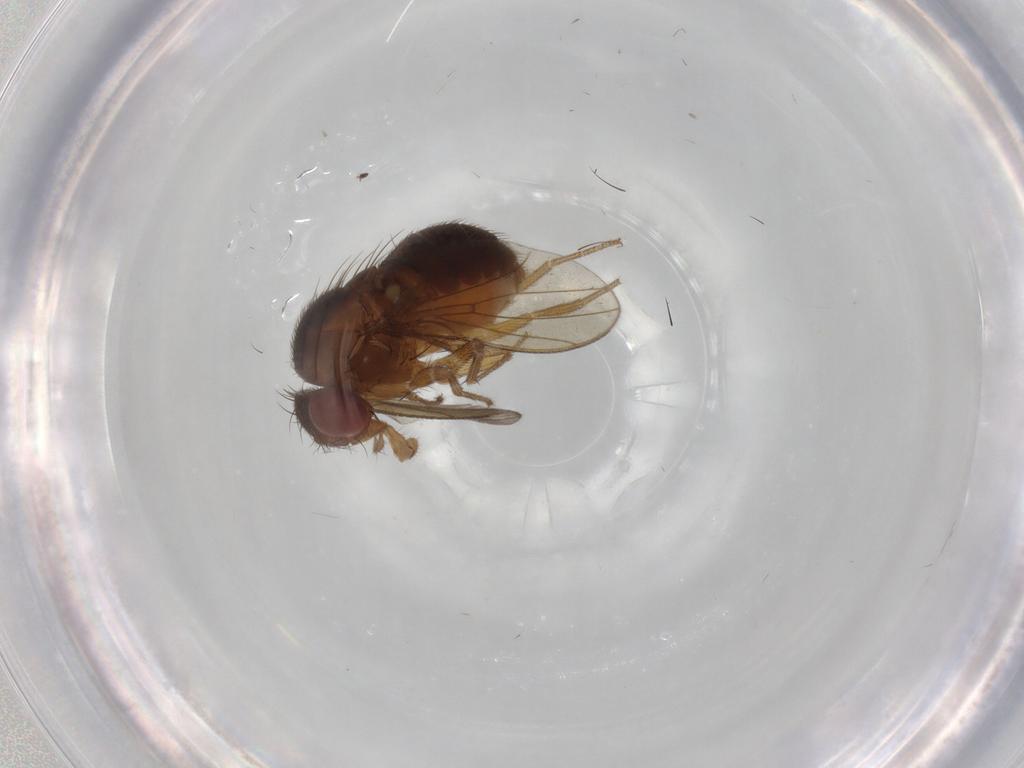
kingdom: Animalia
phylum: Arthropoda
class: Insecta
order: Diptera
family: Drosophilidae
